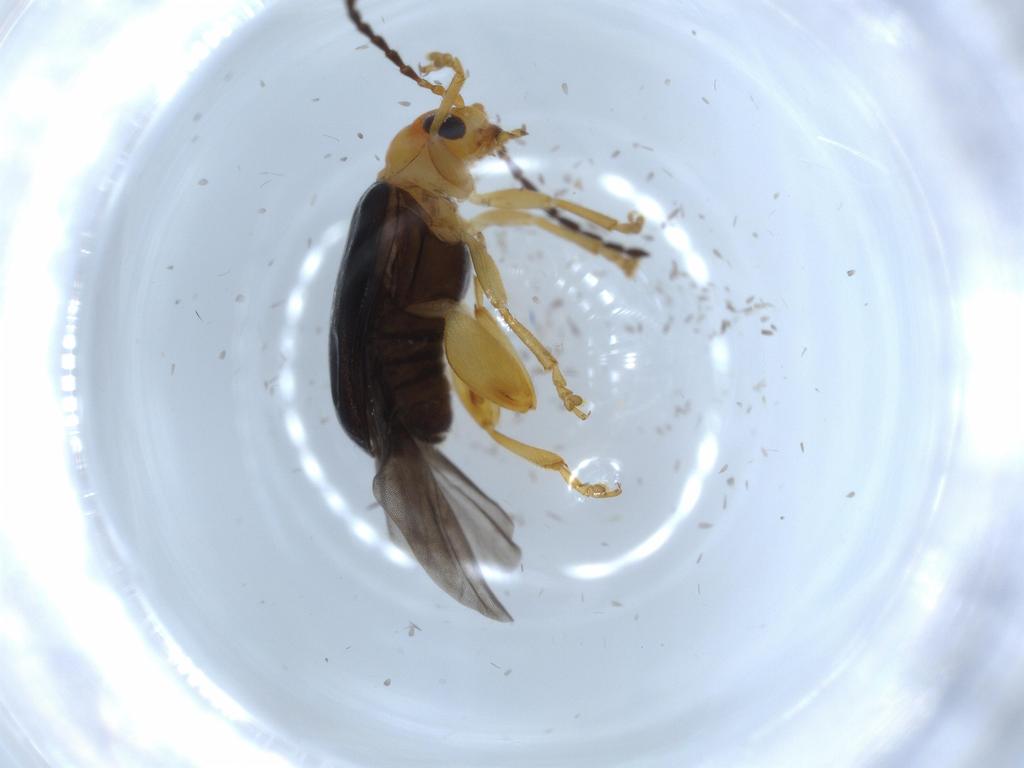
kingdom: Animalia
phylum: Arthropoda
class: Insecta
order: Coleoptera
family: Chrysomelidae
